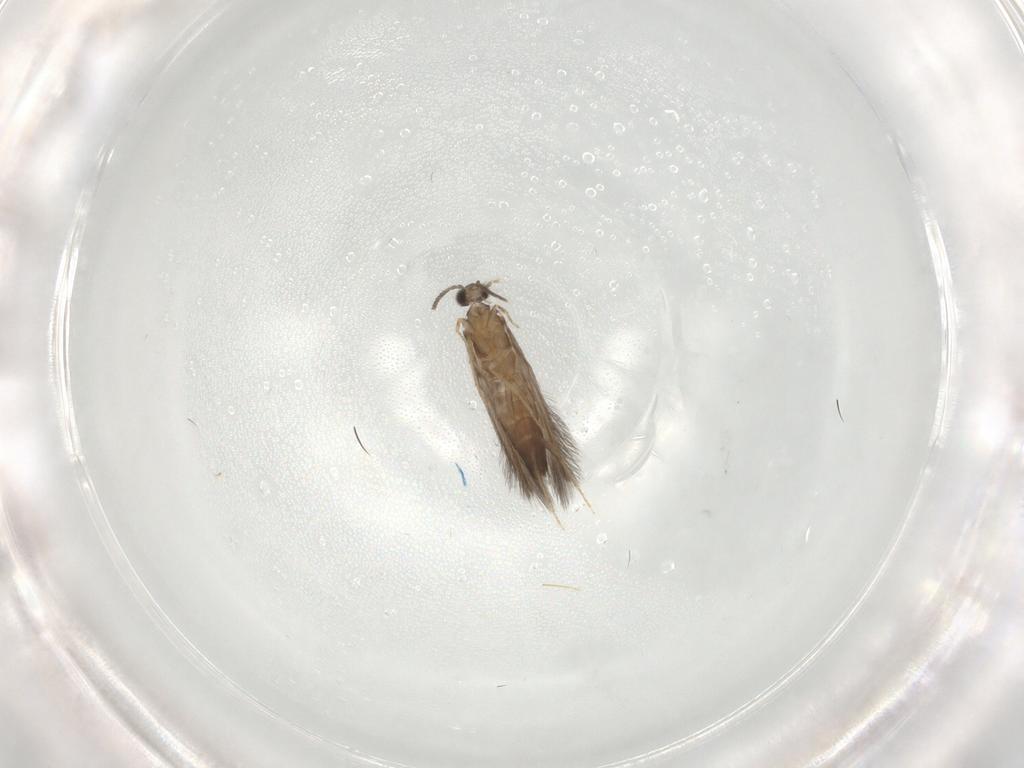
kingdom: Animalia
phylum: Arthropoda
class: Insecta
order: Trichoptera
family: Hydroptilidae
